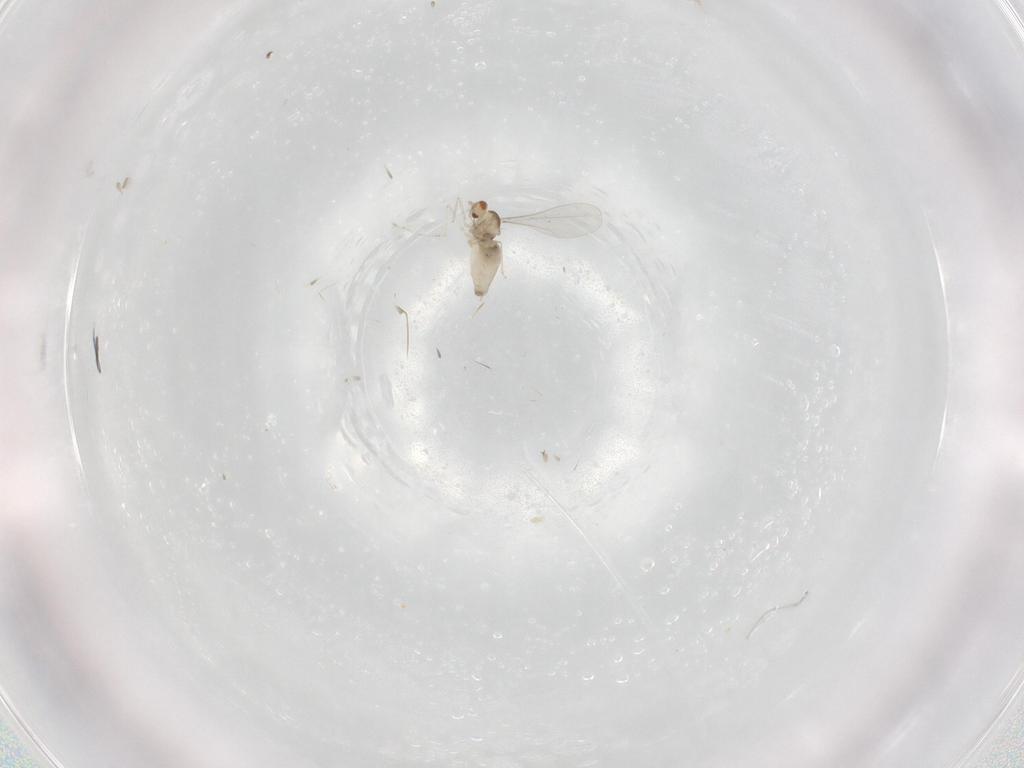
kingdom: Animalia
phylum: Arthropoda
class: Insecta
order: Diptera
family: Cecidomyiidae
